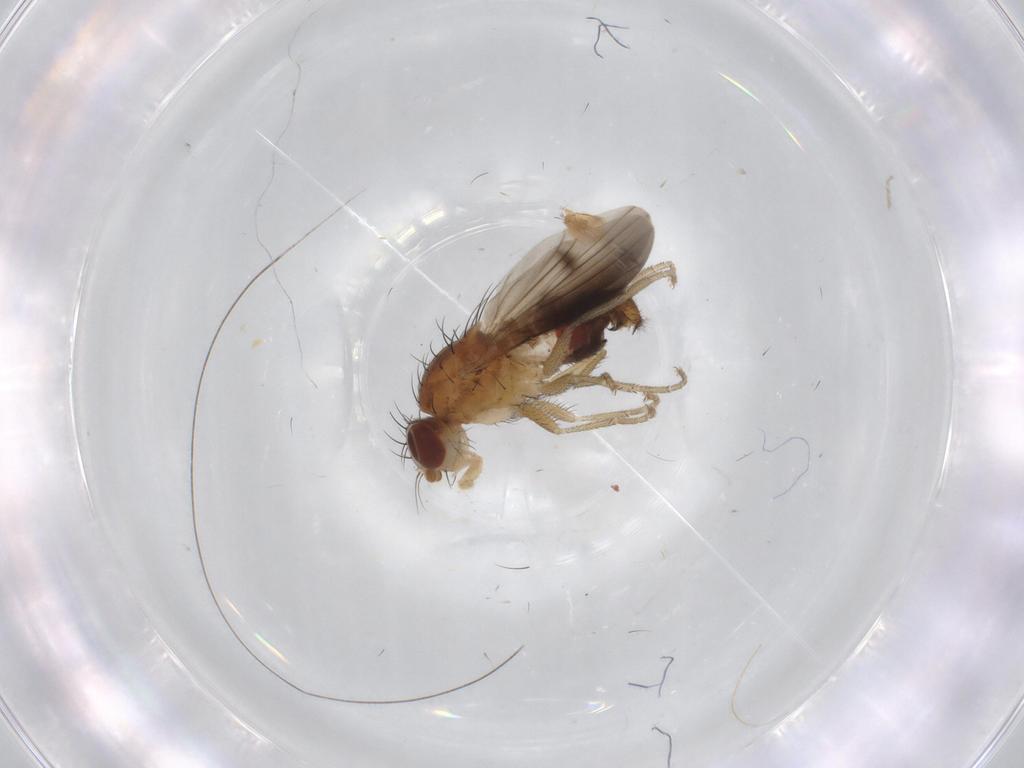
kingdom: Animalia
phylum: Arthropoda
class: Insecta
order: Diptera
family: Heleomyzidae
